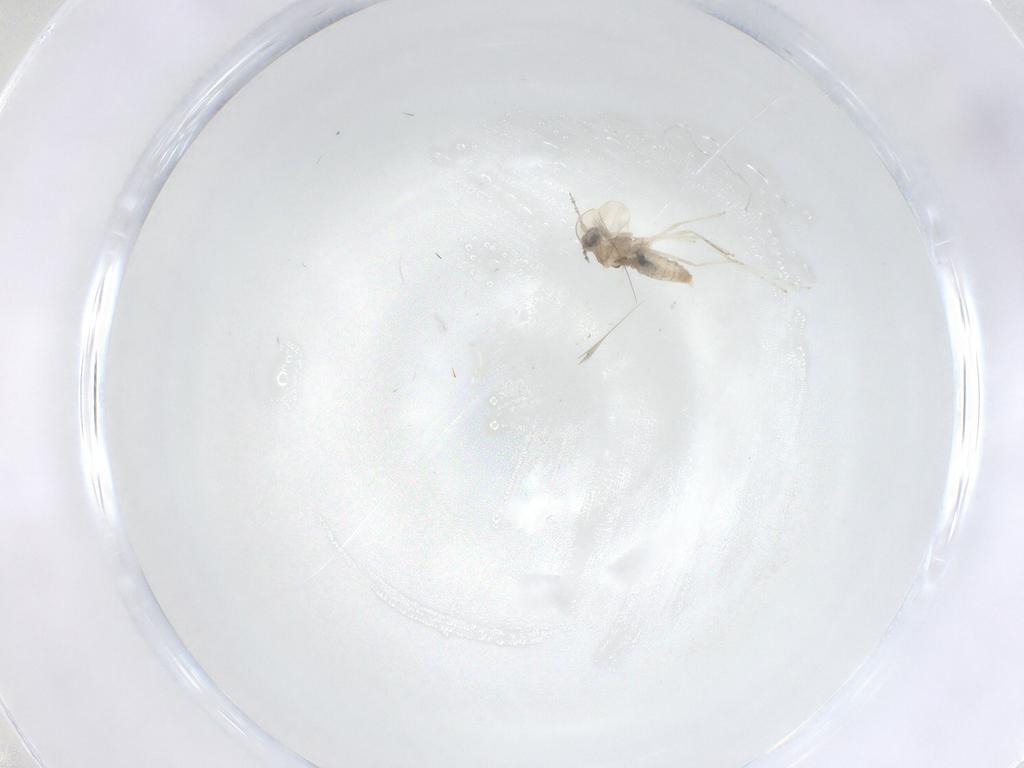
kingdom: Animalia
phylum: Arthropoda
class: Insecta
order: Diptera
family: Cecidomyiidae
